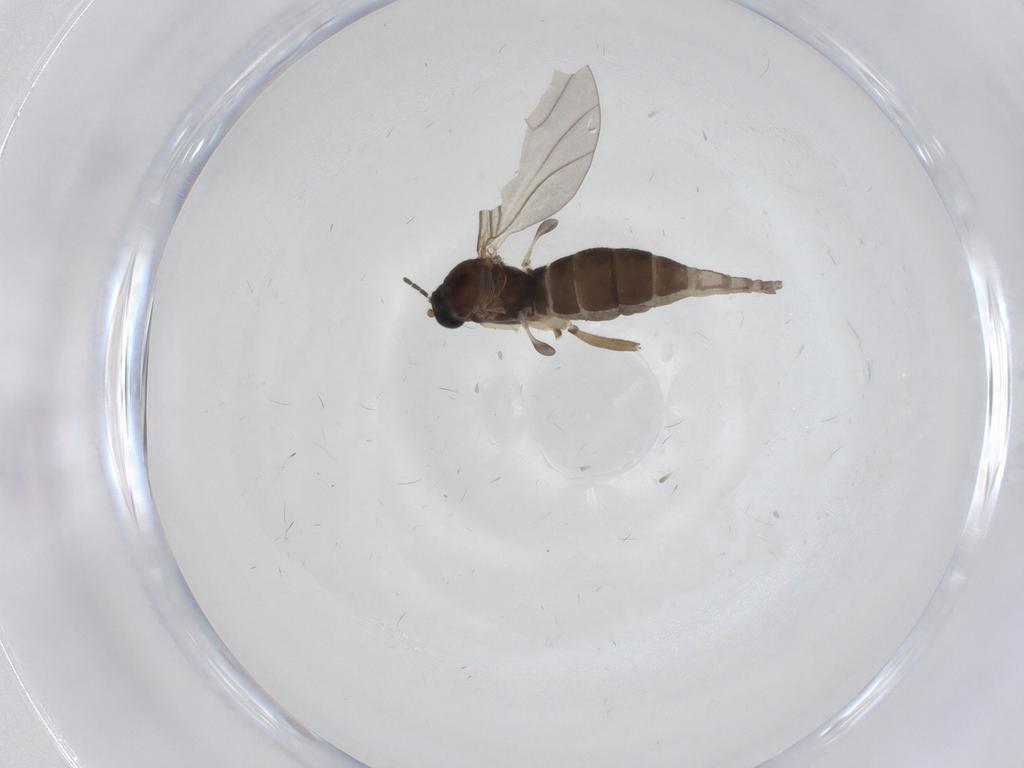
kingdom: Animalia
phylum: Arthropoda
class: Insecta
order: Diptera
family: Sciaridae
